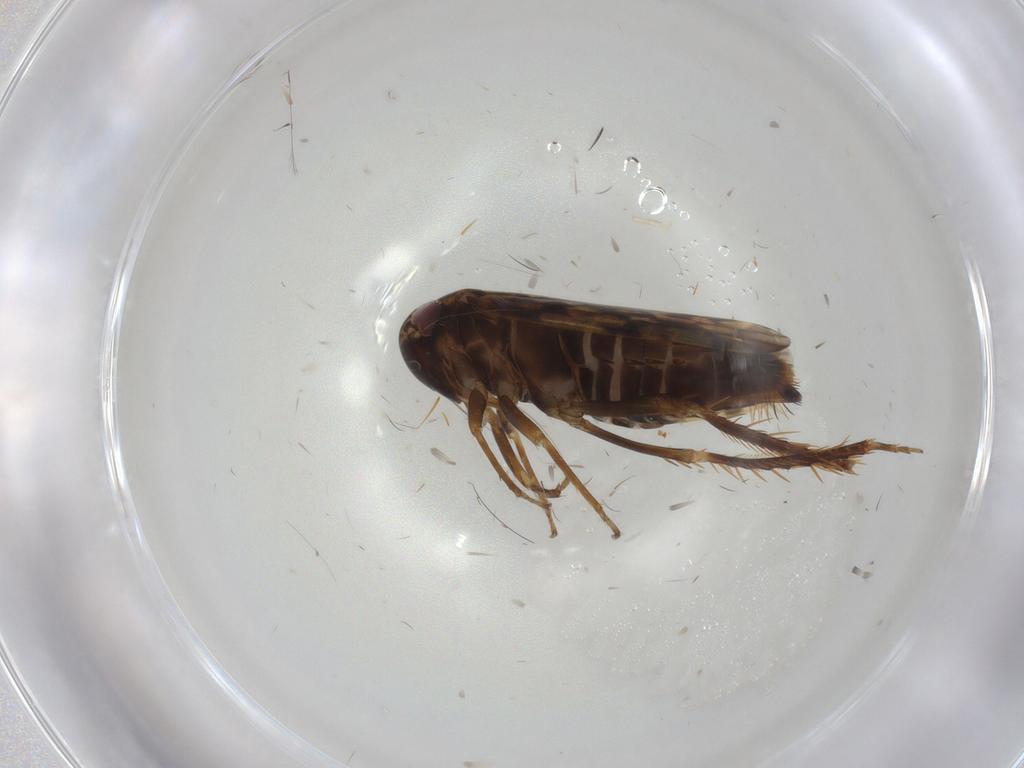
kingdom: Animalia
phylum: Arthropoda
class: Insecta
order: Hemiptera
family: Cicadellidae
